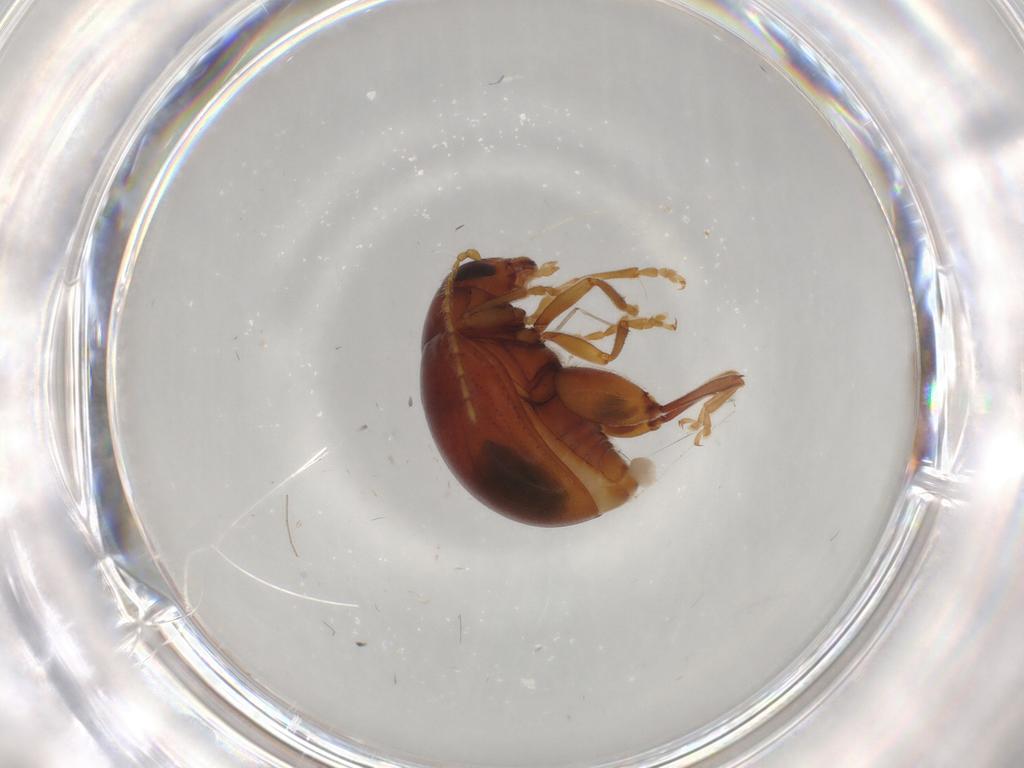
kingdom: Animalia
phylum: Arthropoda
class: Insecta
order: Coleoptera
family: Chrysomelidae
